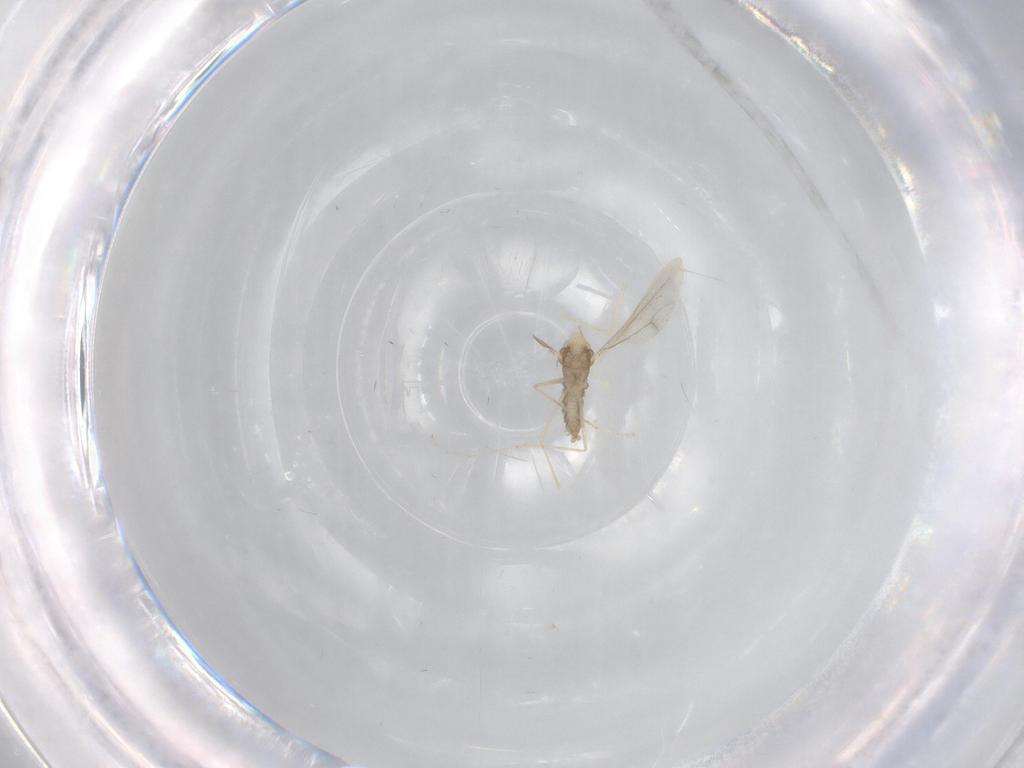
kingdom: Animalia
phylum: Arthropoda
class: Insecta
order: Diptera
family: Cecidomyiidae
